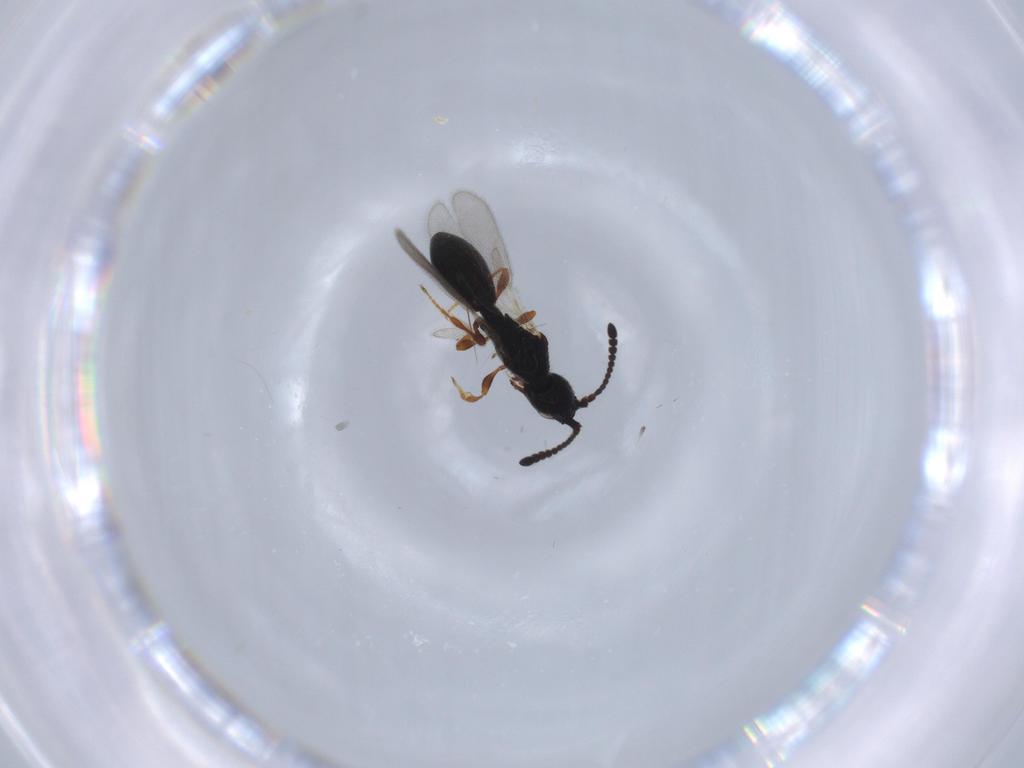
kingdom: Animalia
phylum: Arthropoda
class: Insecta
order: Hymenoptera
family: Diapriidae
